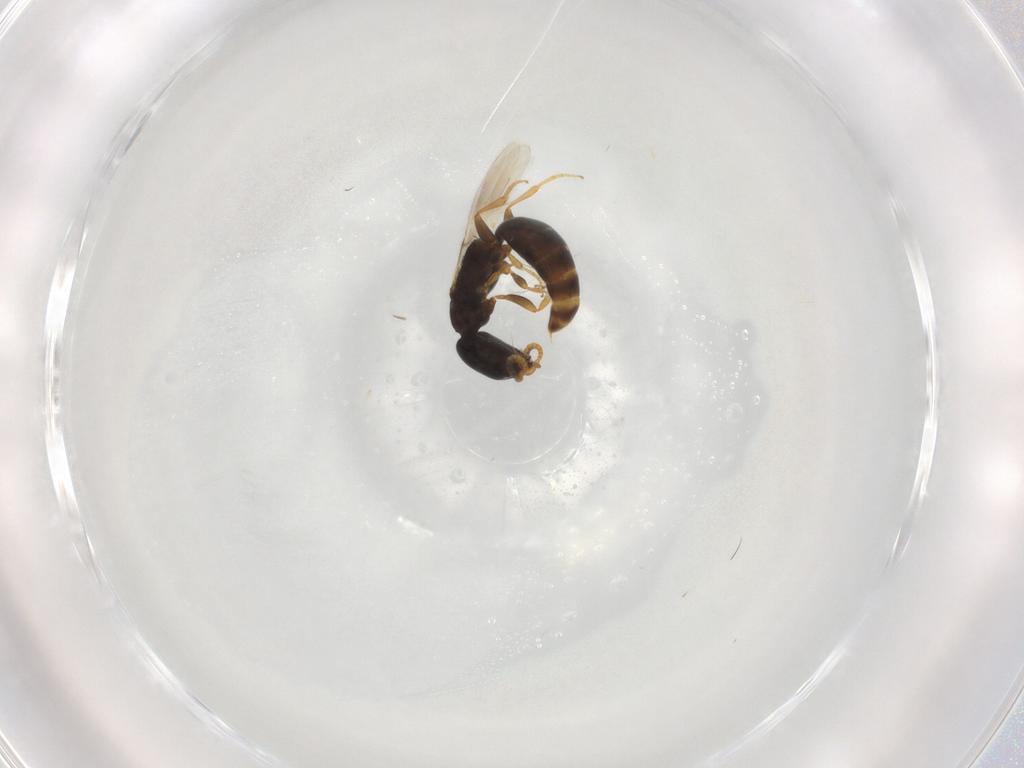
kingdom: Animalia
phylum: Arthropoda
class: Insecta
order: Hymenoptera
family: Bethylidae
